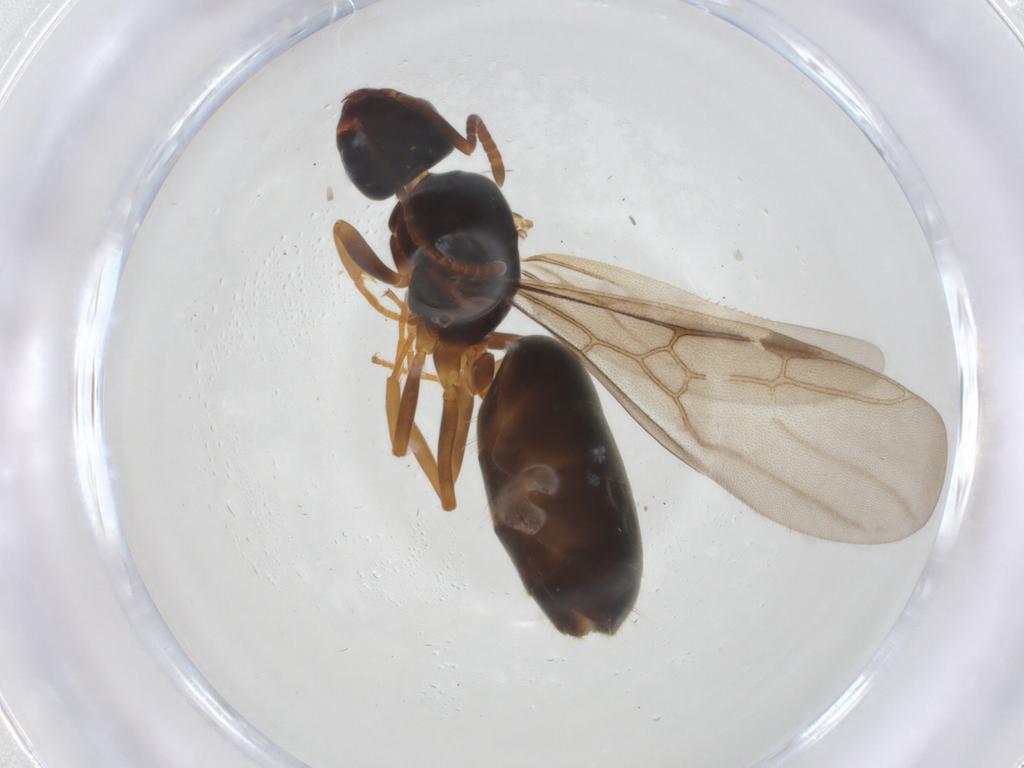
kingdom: Animalia
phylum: Arthropoda
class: Insecta
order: Hymenoptera
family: Formicidae
